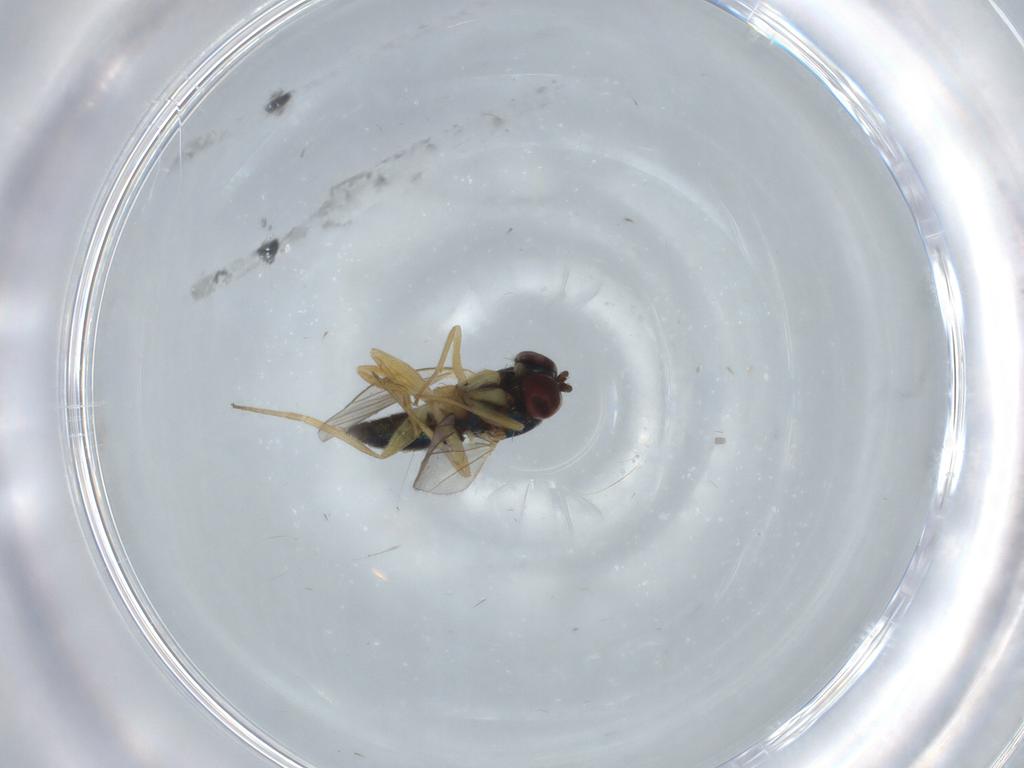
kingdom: Animalia
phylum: Arthropoda
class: Insecta
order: Diptera
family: Dolichopodidae
